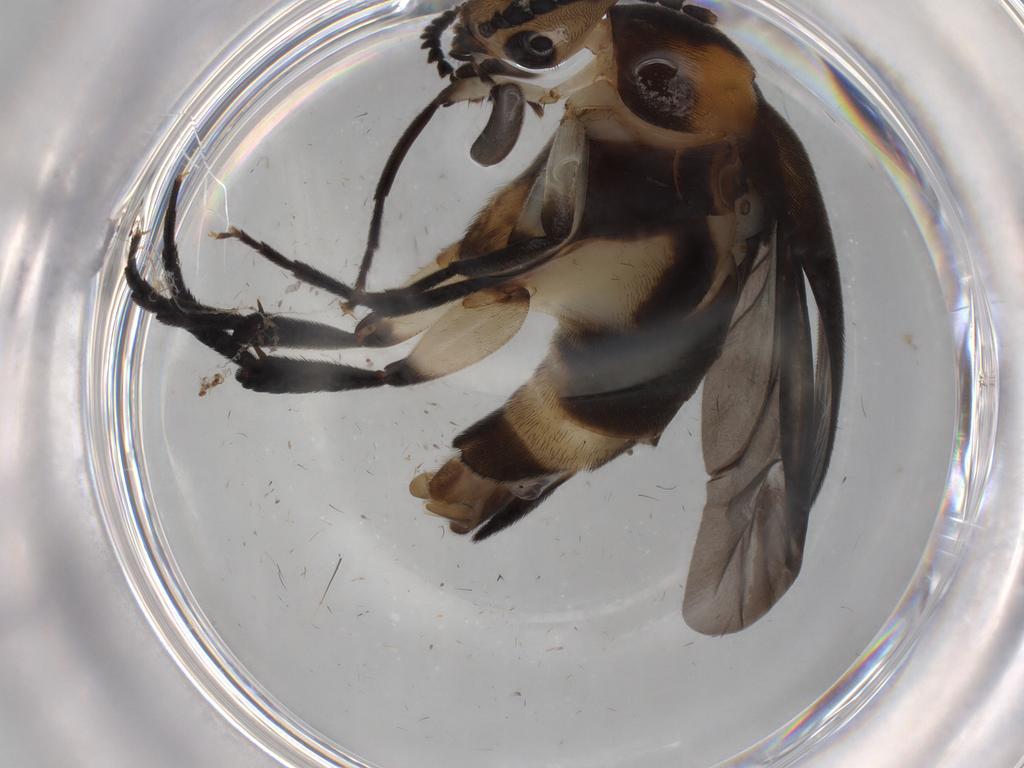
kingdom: Animalia
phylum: Arthropoda
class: Insecta
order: Coleoptera
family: Mordellidae
